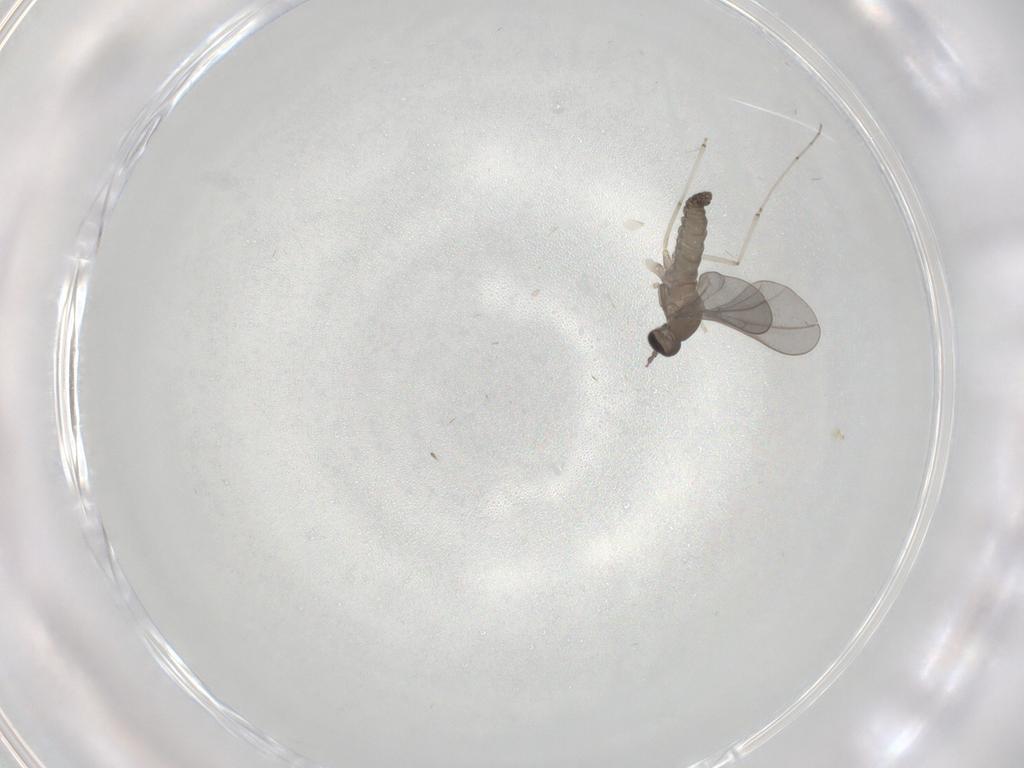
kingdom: Animalia
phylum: Arthropoda
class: Insecta
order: Diptera
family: Cecidomyiidae
